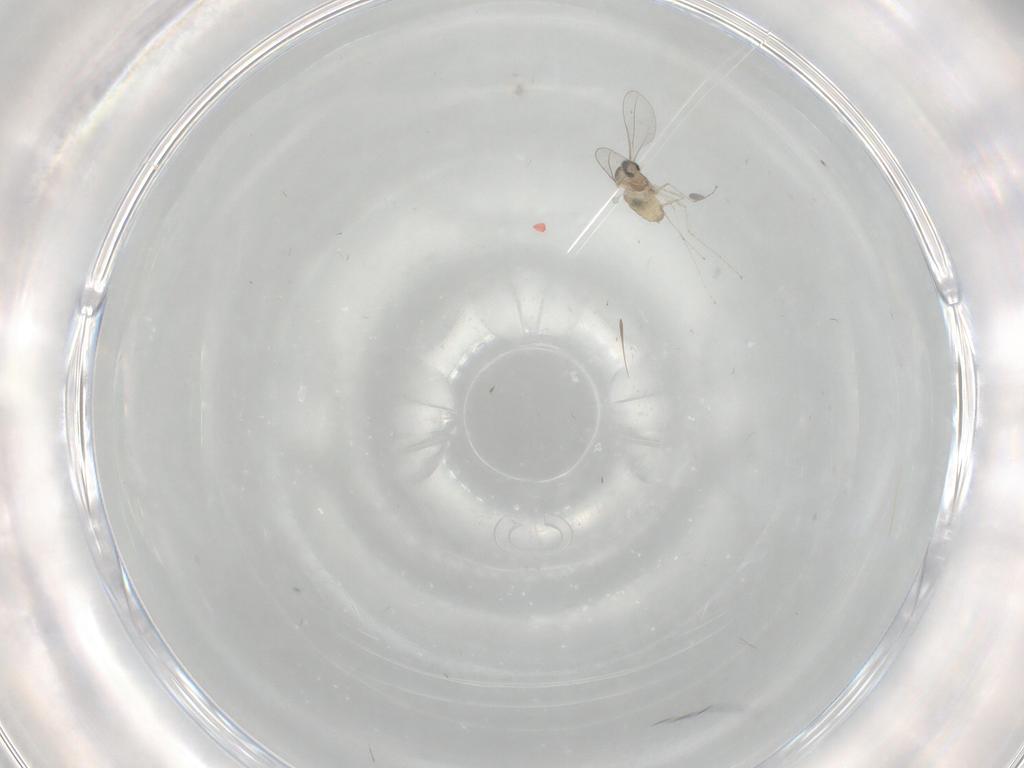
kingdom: Animalia
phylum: Arthropoda
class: Insecta
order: Diptera
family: Cecidomyiidae
